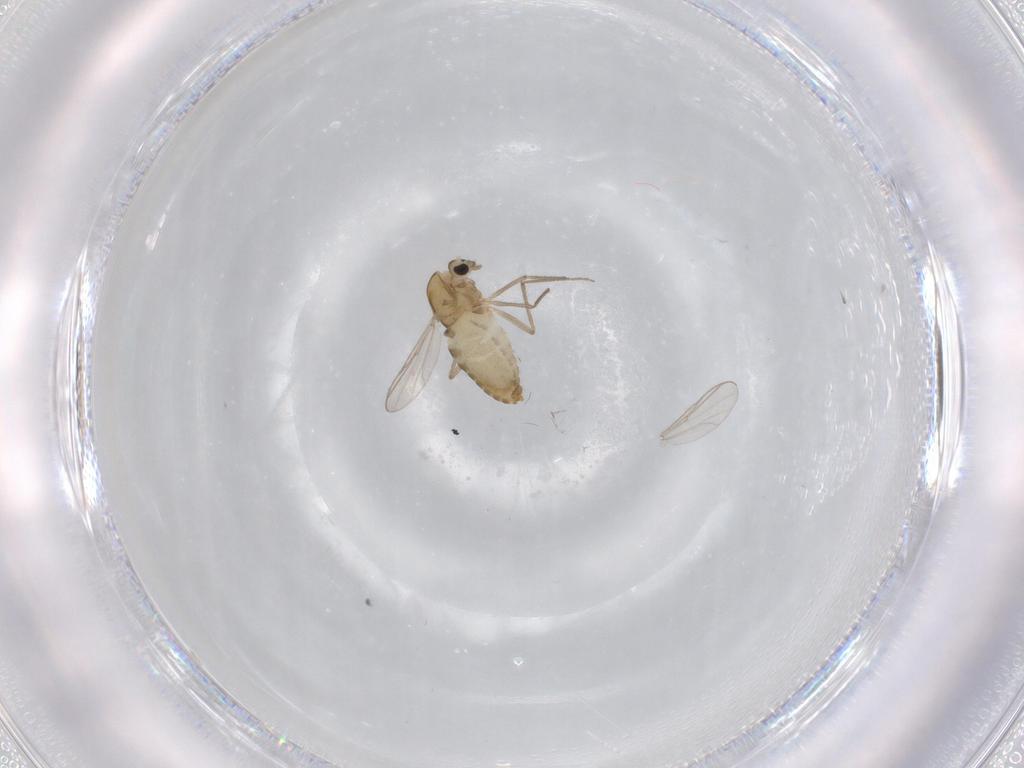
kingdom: Animalia
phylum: Arthropoda
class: Insecta
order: Diptera
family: Chironomidae
